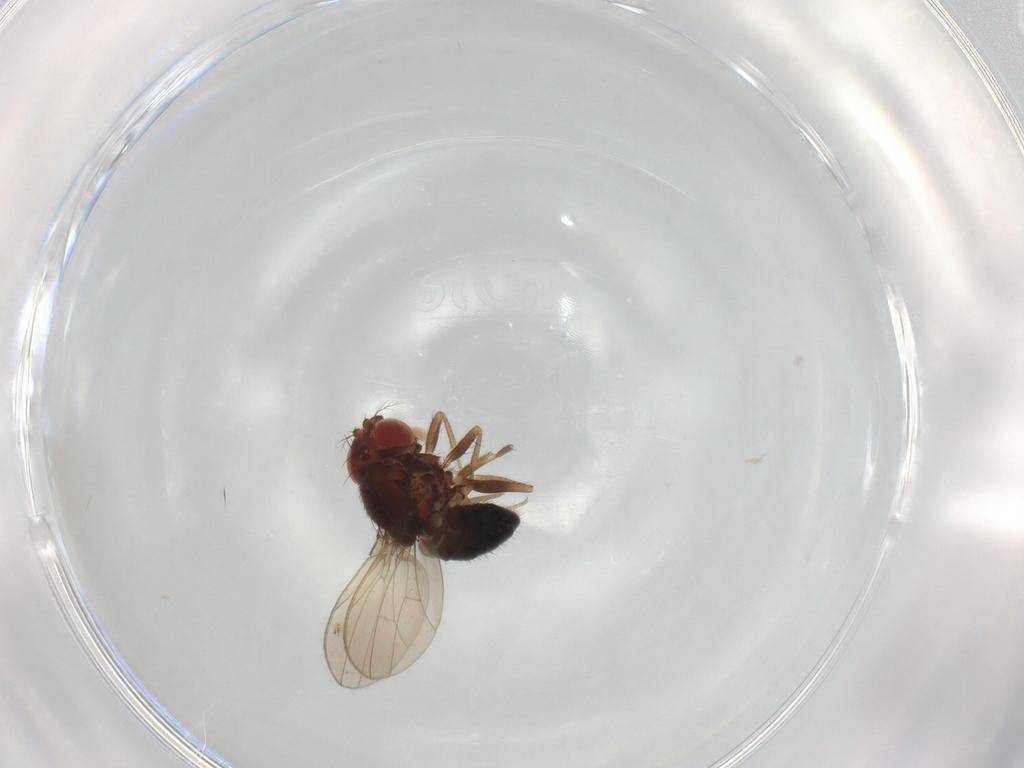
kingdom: Animalia
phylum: Arthropoda
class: Insecta
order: Diptera
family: Drosophilidae
